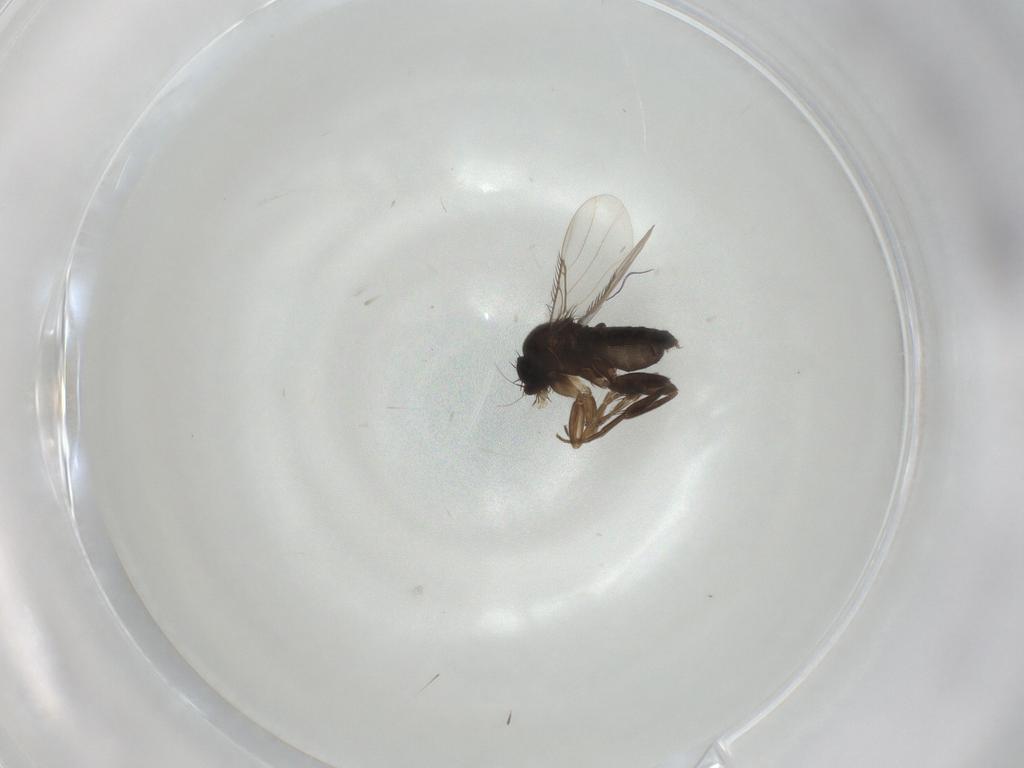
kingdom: Animalia
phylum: Arthropoda
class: Insecta
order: Diptera
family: Phoridae
